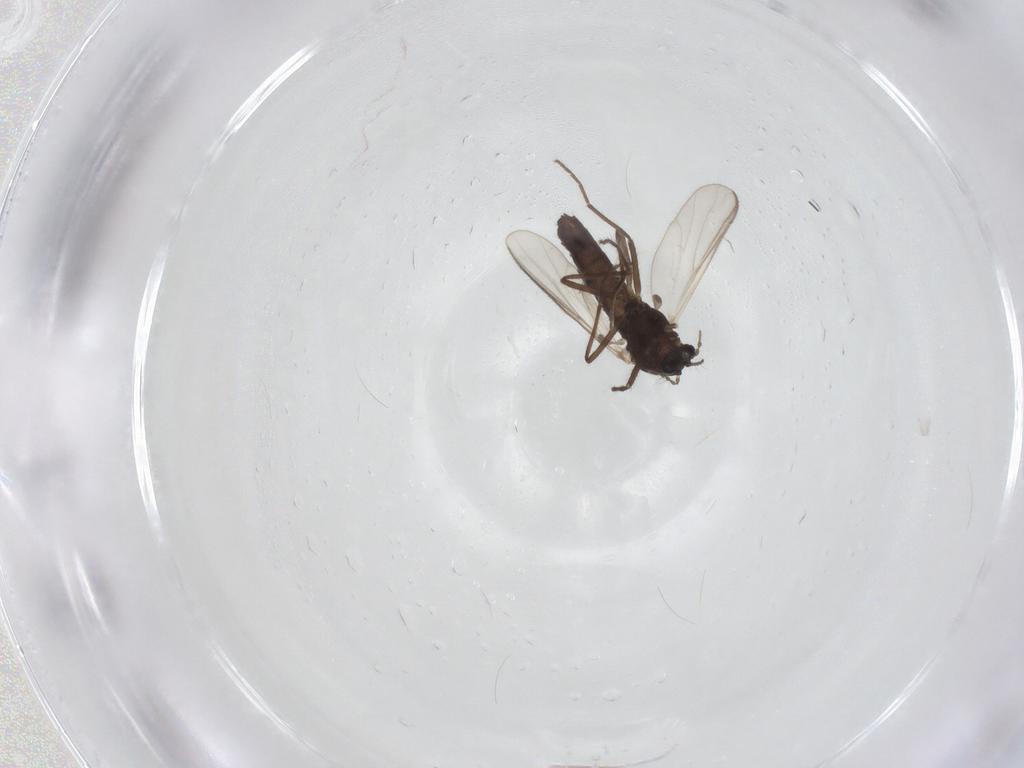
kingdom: Animalia
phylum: Arthropoda
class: Insecta
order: Diptera
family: Chironomidae
